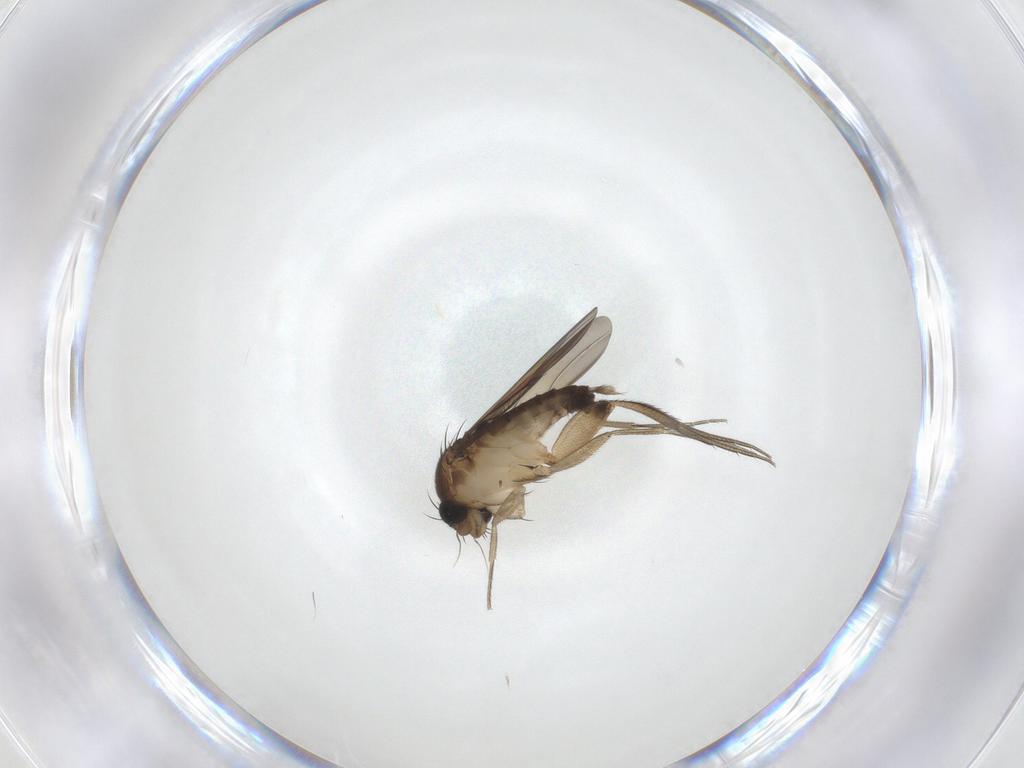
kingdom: Animalia
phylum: Arthropoda
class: Insecta
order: Diptera
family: Sciaridae
